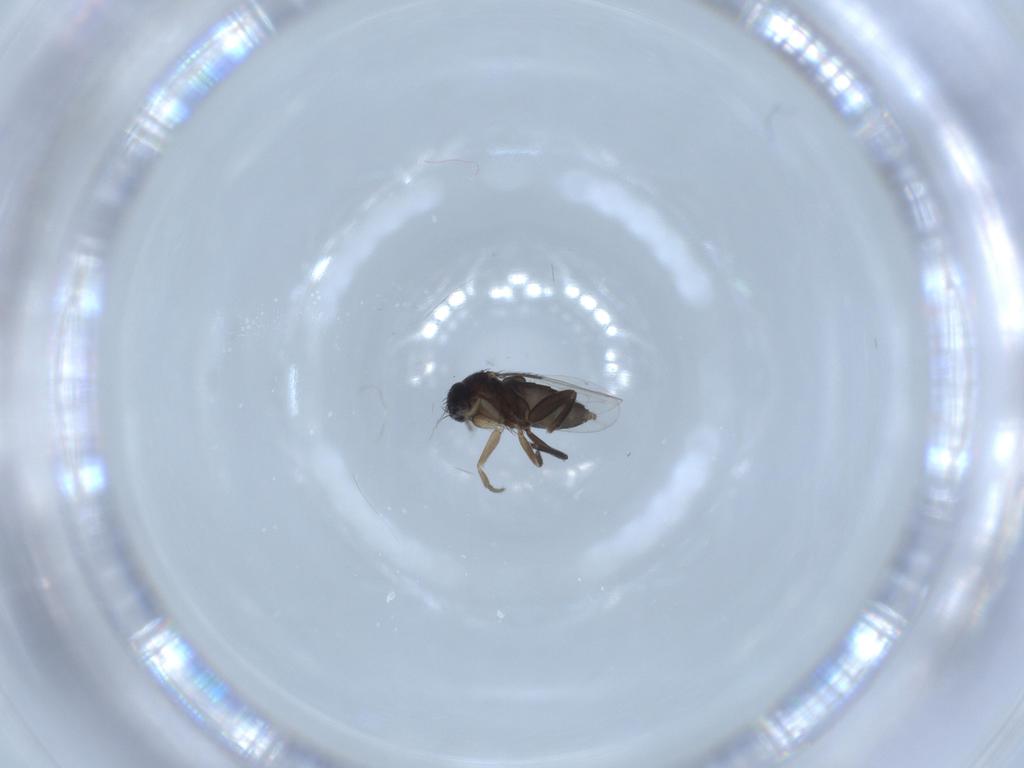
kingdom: Animalia
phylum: Arthropoda
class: Insecta
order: Diptera
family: Phoridae
